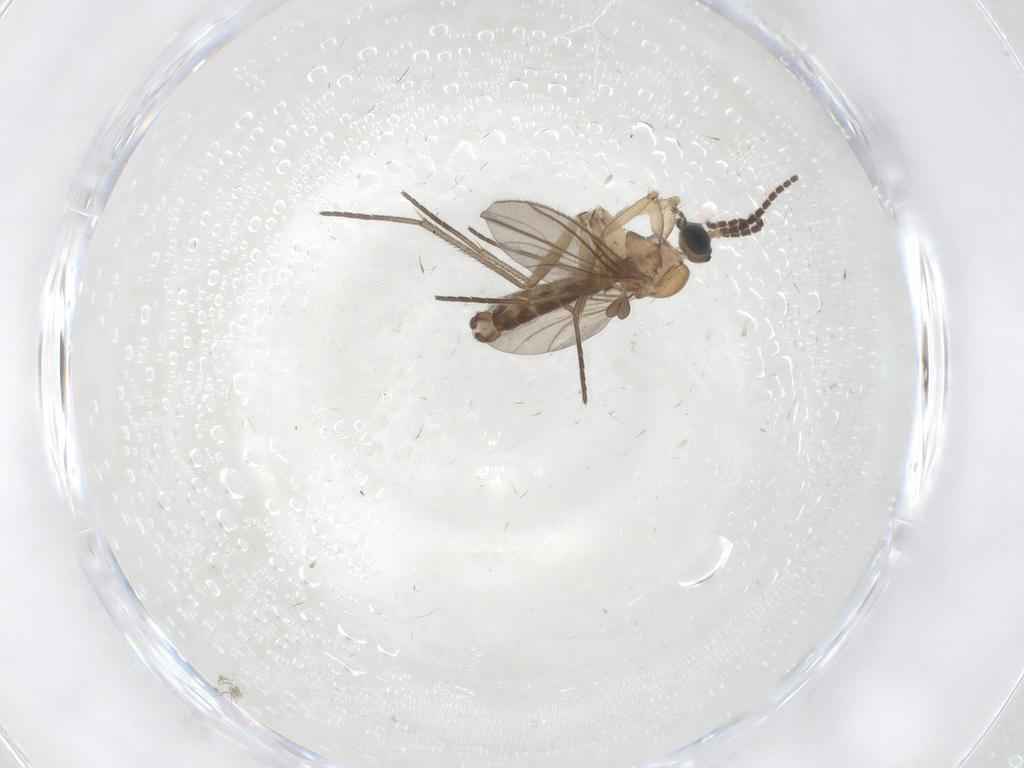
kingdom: Animalia
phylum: Arthropoda
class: Insecta
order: Diptera
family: Sciaridae
